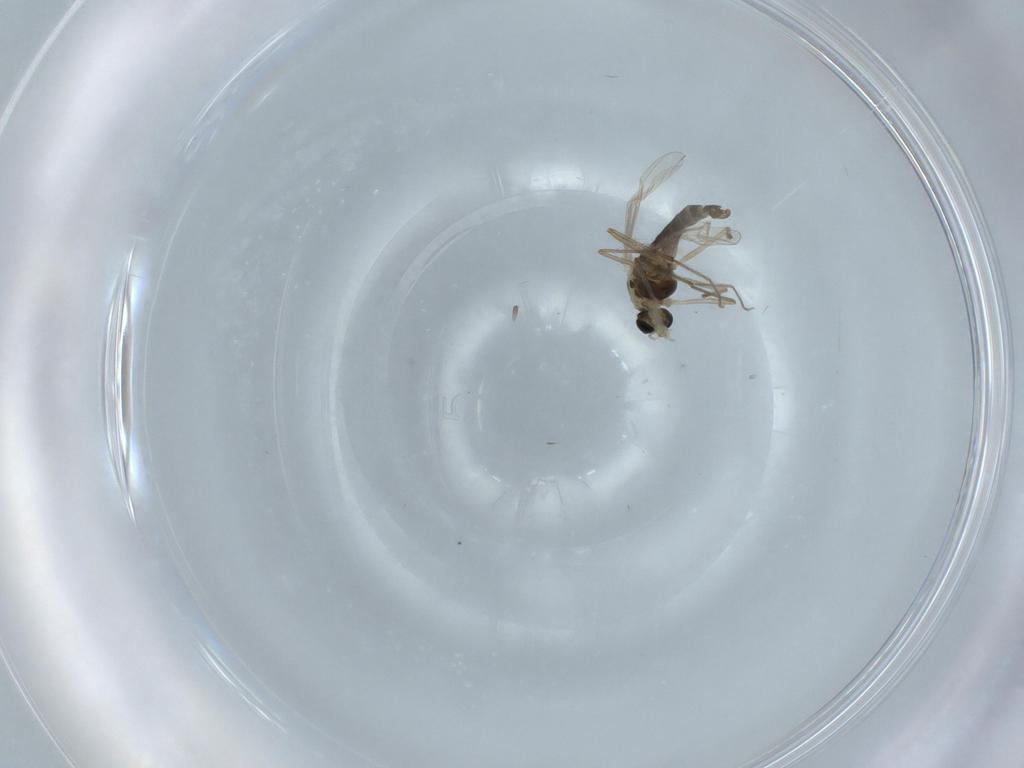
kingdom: Animalia
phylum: Arthropoda
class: Insecta
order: Diptera
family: Chironomidae
